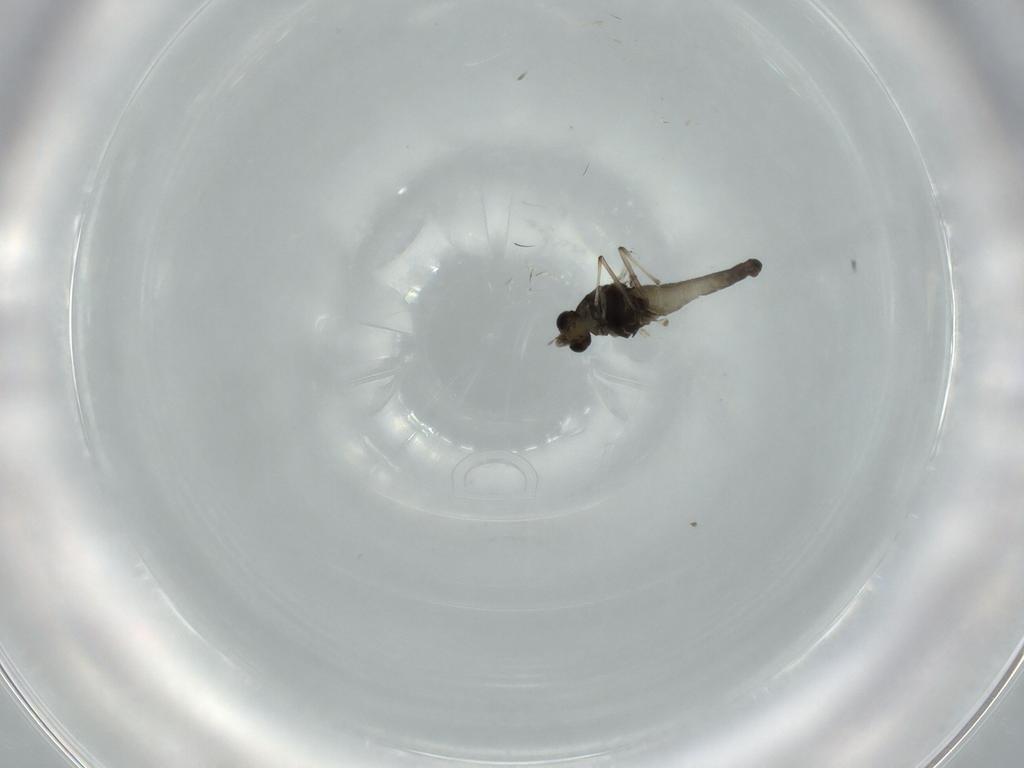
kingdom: Animalia
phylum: Arthropoda
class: Insecta
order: Diptera
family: Chironomidae
